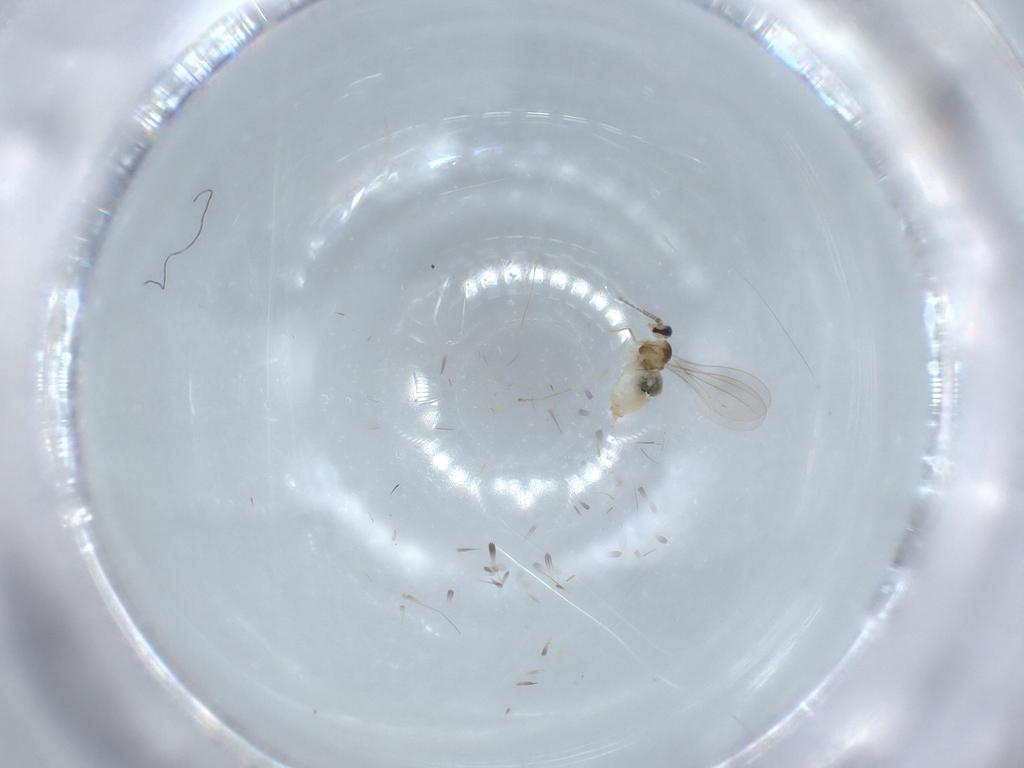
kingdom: Animalia
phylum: Arthropoda
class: Insecta
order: Diptera
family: Cecidomyiidae
